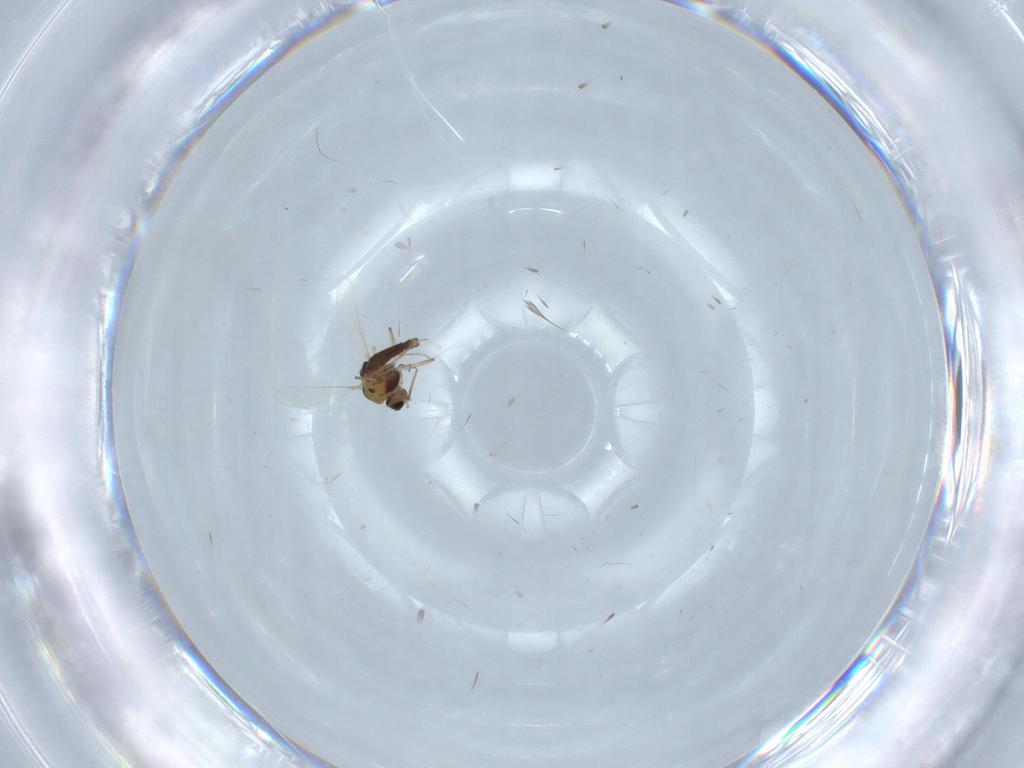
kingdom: Animalia
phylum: Arthropoda
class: Insecta
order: Diptera
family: Chironomidae
